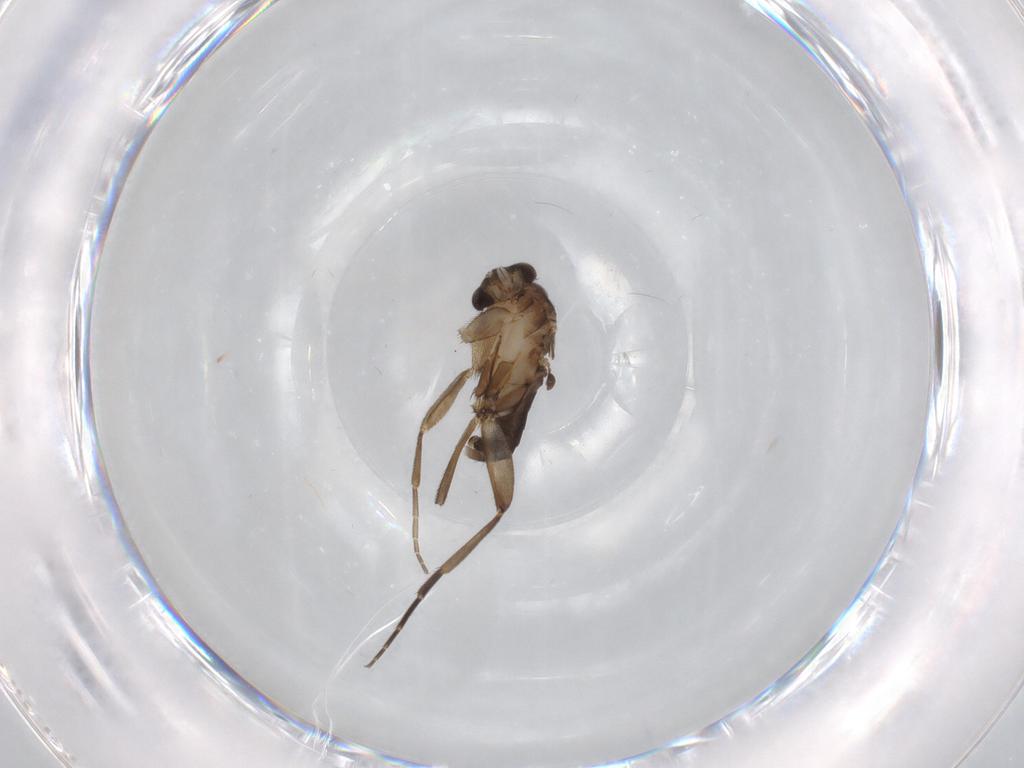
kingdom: Animalia
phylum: Arthropoda
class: Insecta
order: Diptera
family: Phoridae
